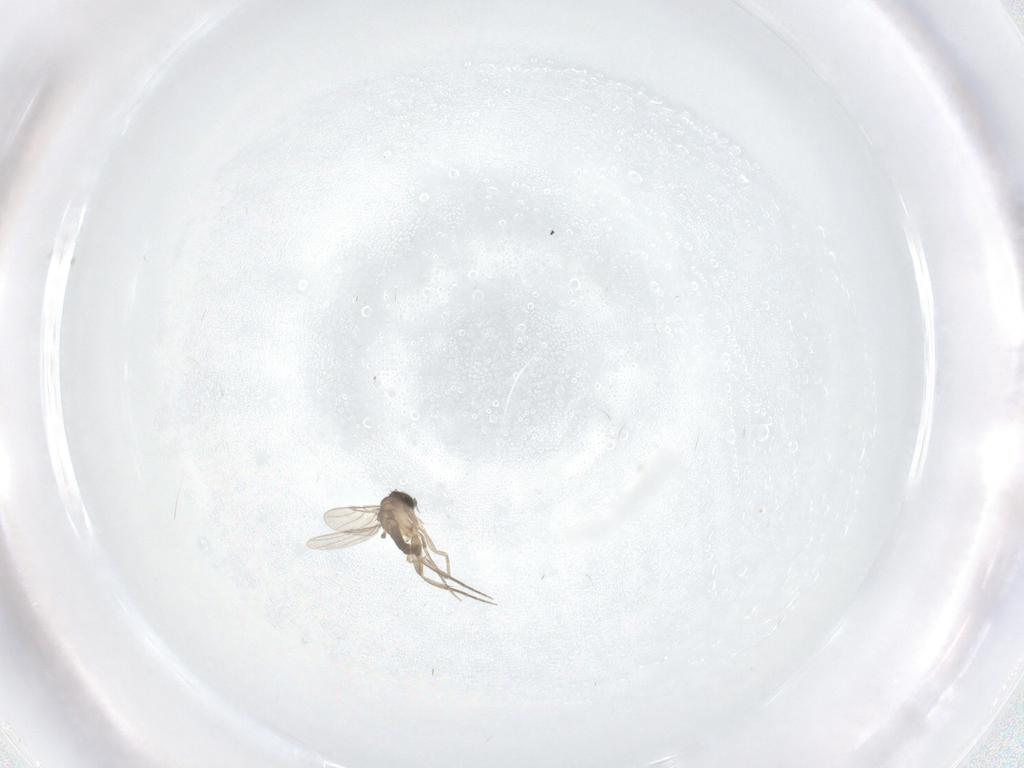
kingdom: Animalia
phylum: Arthropoda
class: Insecta
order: Diptera
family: Phoridae
